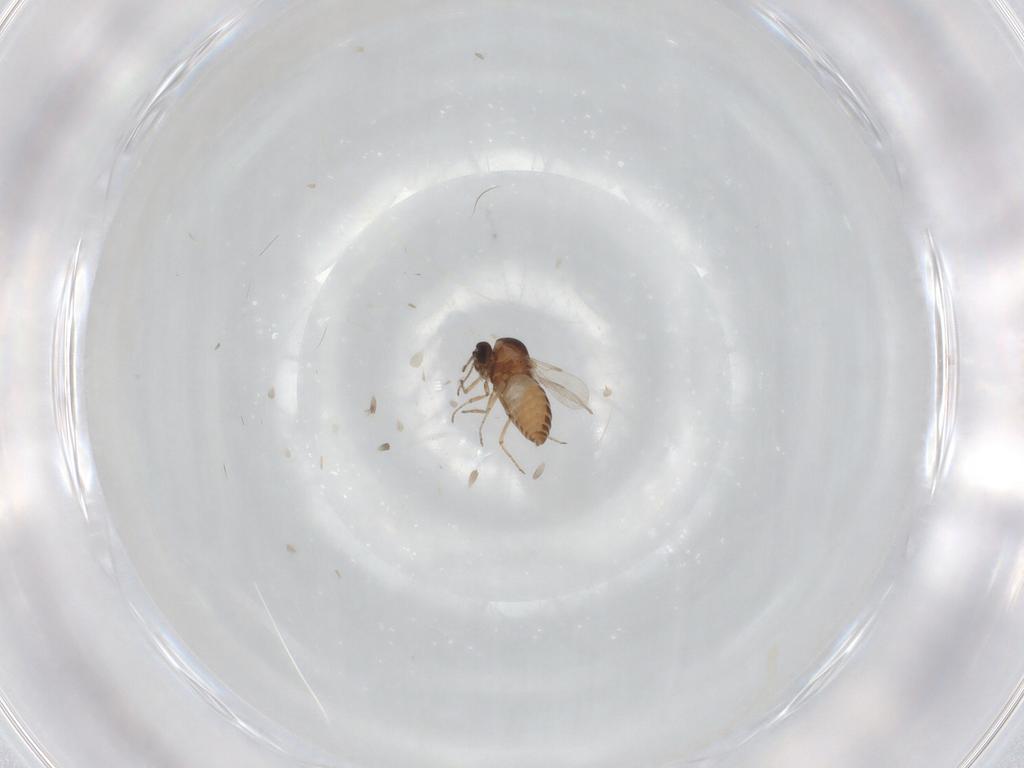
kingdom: Animalia
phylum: Arthropoda
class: Insecta
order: Diptera
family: Ceratopogonidae
